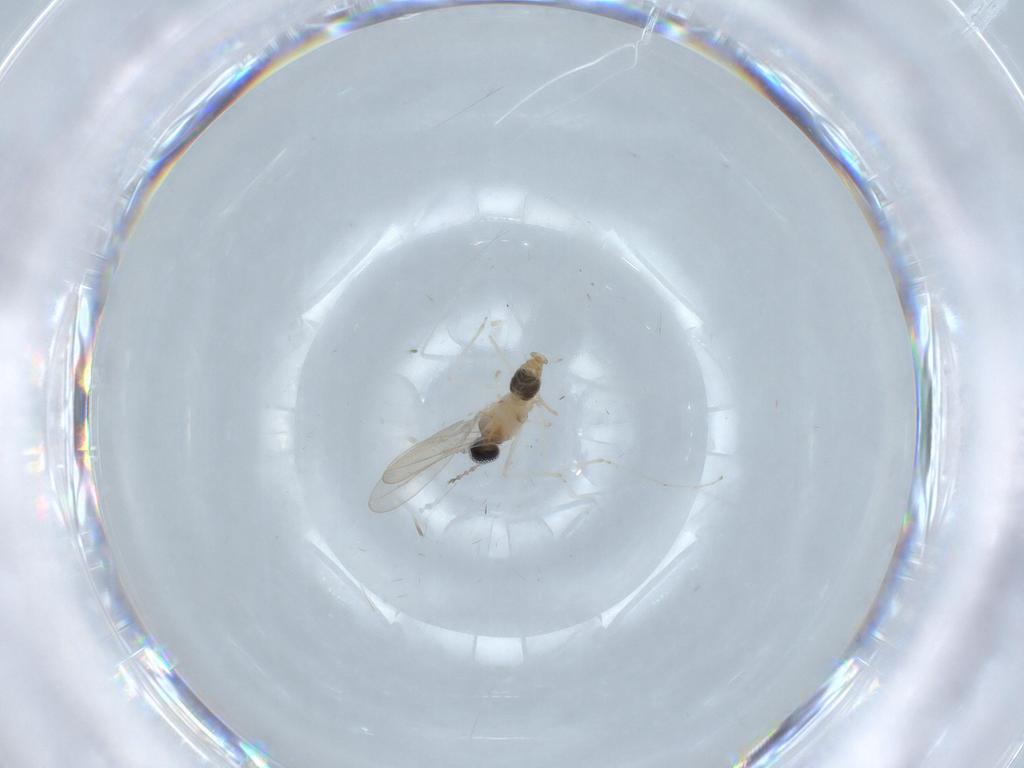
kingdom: Animalia
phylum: Arthropoda
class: Insecta
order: Diptera
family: Cecidomyiidae
